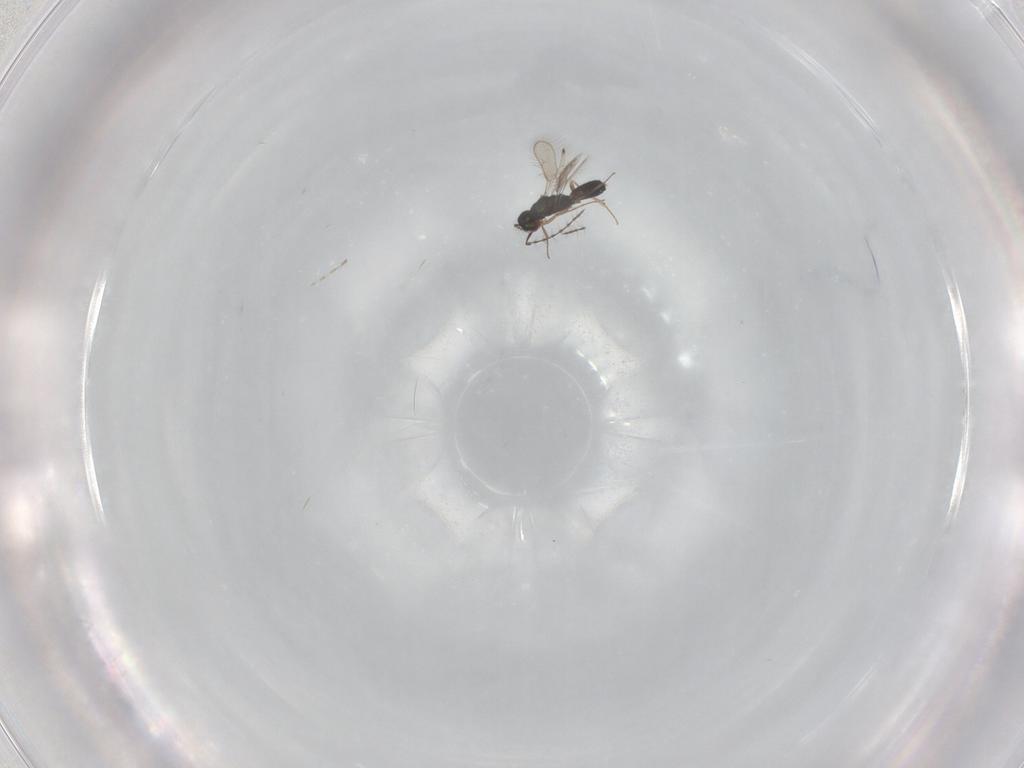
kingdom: Animalia
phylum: Arthropoda
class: Insecta
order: Hymenoptera
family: Pteromalidae
